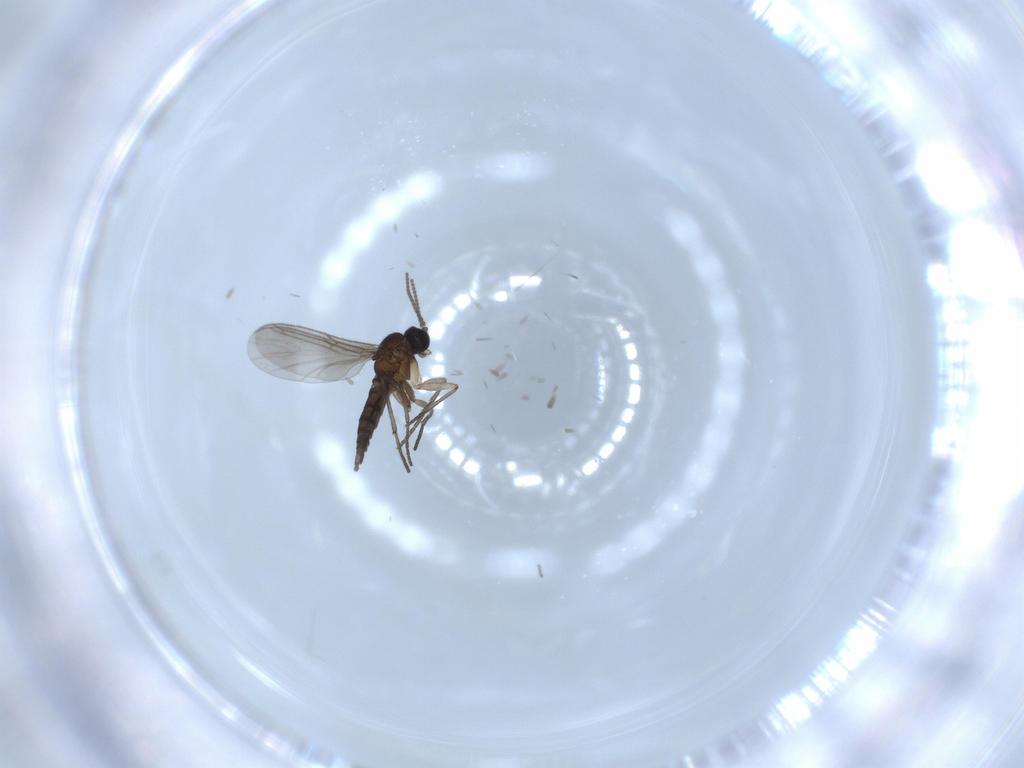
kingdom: Animalia
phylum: Arthropoda
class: Insecta
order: Diptera
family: Sciaridae
